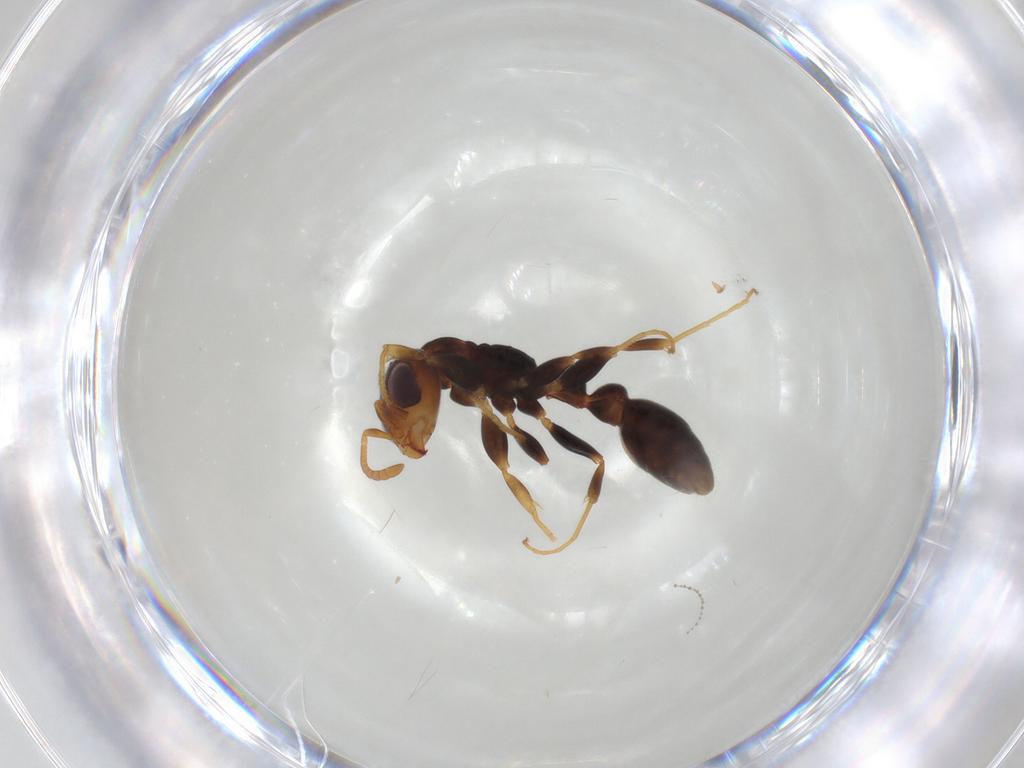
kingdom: Animalia
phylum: Arthropoda
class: Insecta
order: Hymenoptera
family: Formicidae
